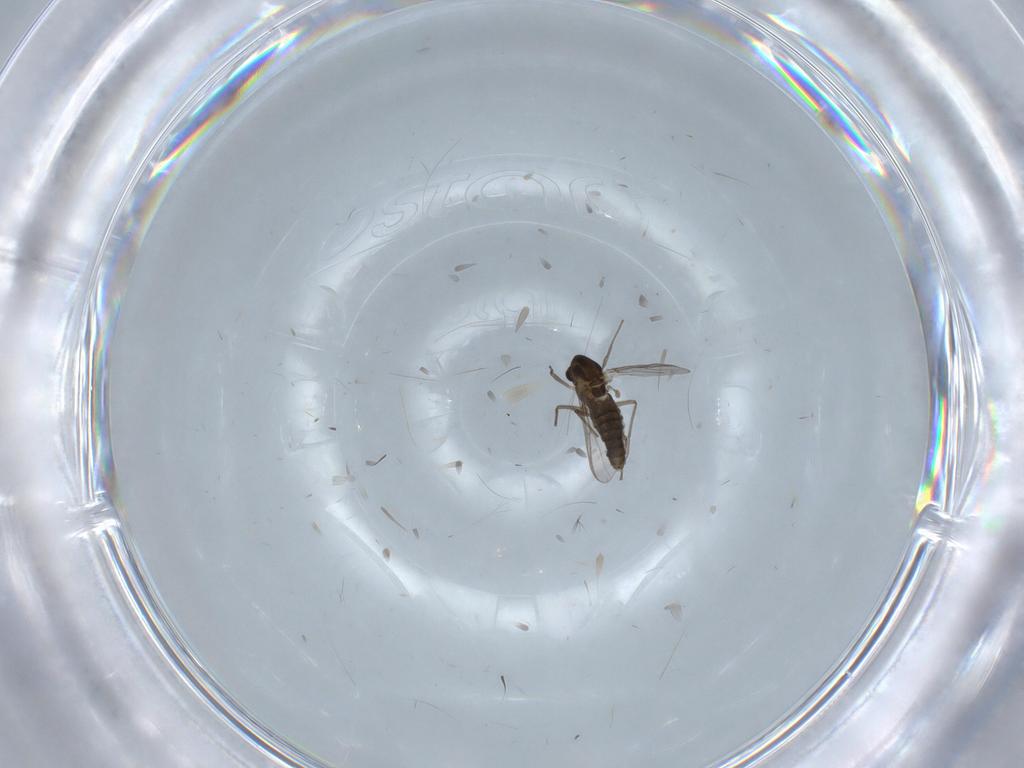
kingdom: Animalia
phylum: Arthropoda
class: Insecta
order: Diptera
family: Chironomidae
